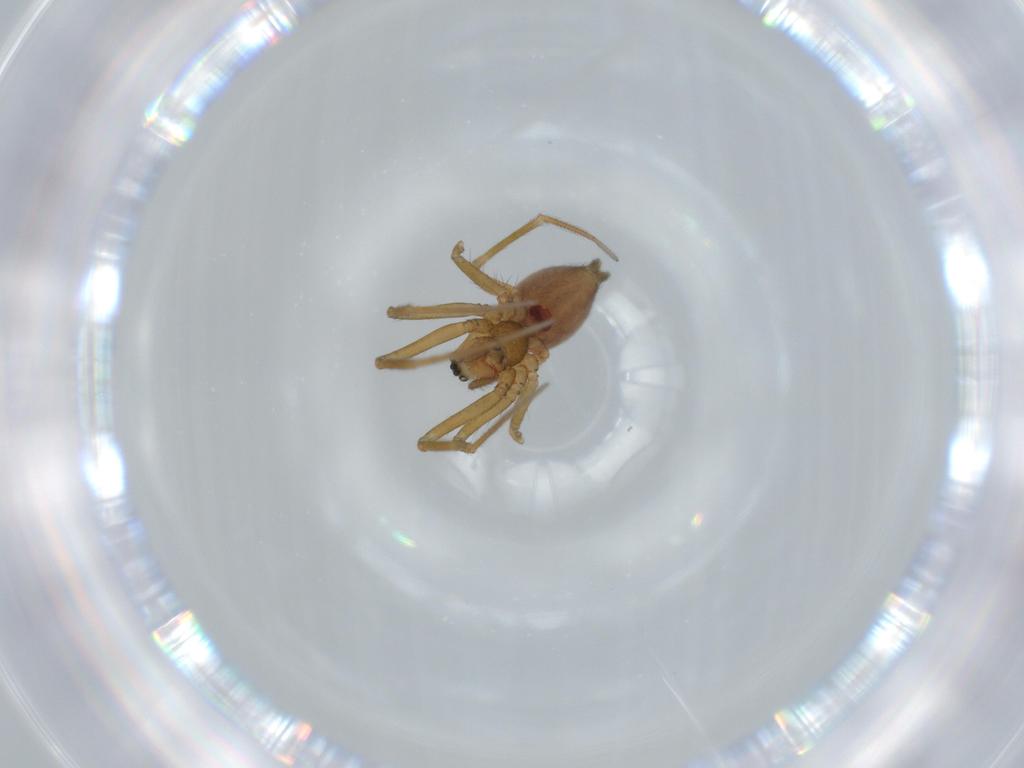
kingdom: Animalia
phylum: Arthropoda
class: Arachnida
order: Araneae
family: Linyphiidae
